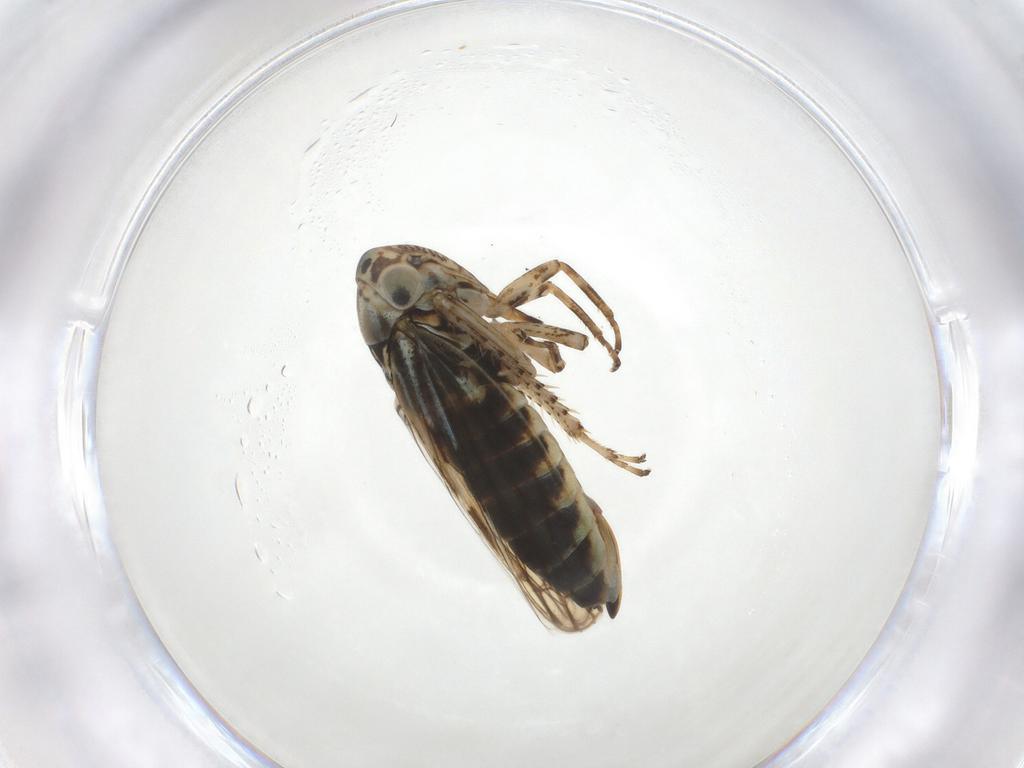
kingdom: Animalia
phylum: Arthropoda
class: Insecta
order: Hemiptera
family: Cicadellidae
